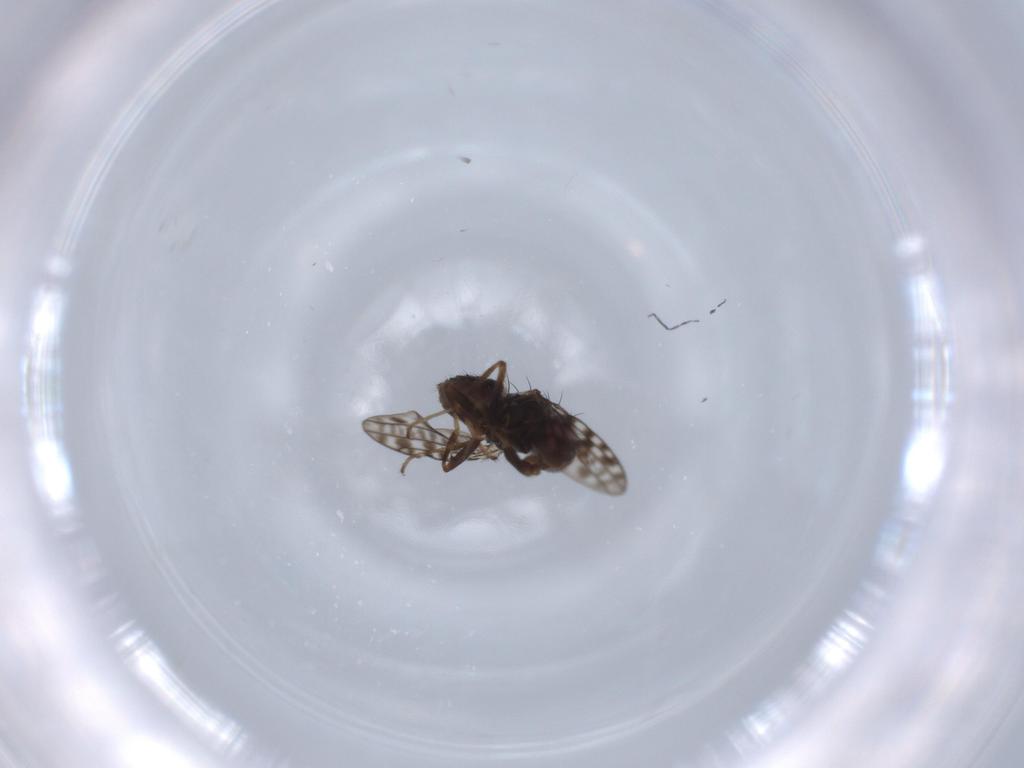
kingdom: Animalia
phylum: Arthropoda
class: Insecta
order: Diptera
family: Ephydridae
